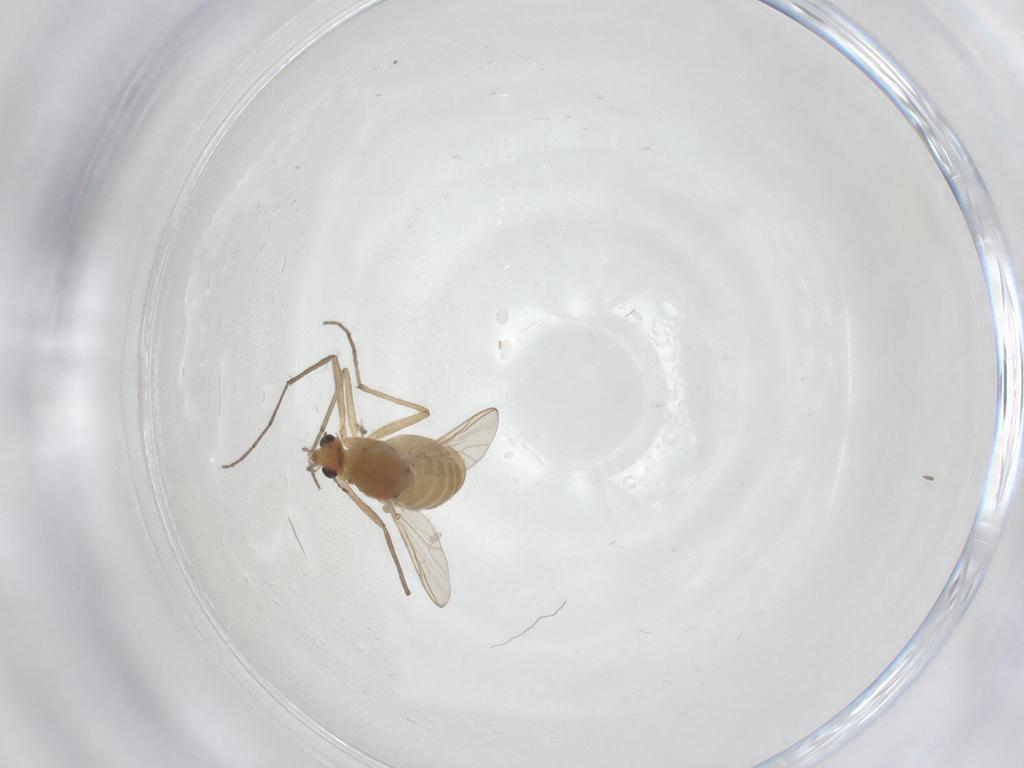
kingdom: Animalia
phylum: Arthropoda
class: Insecta
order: Diptera
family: Chironomidae
